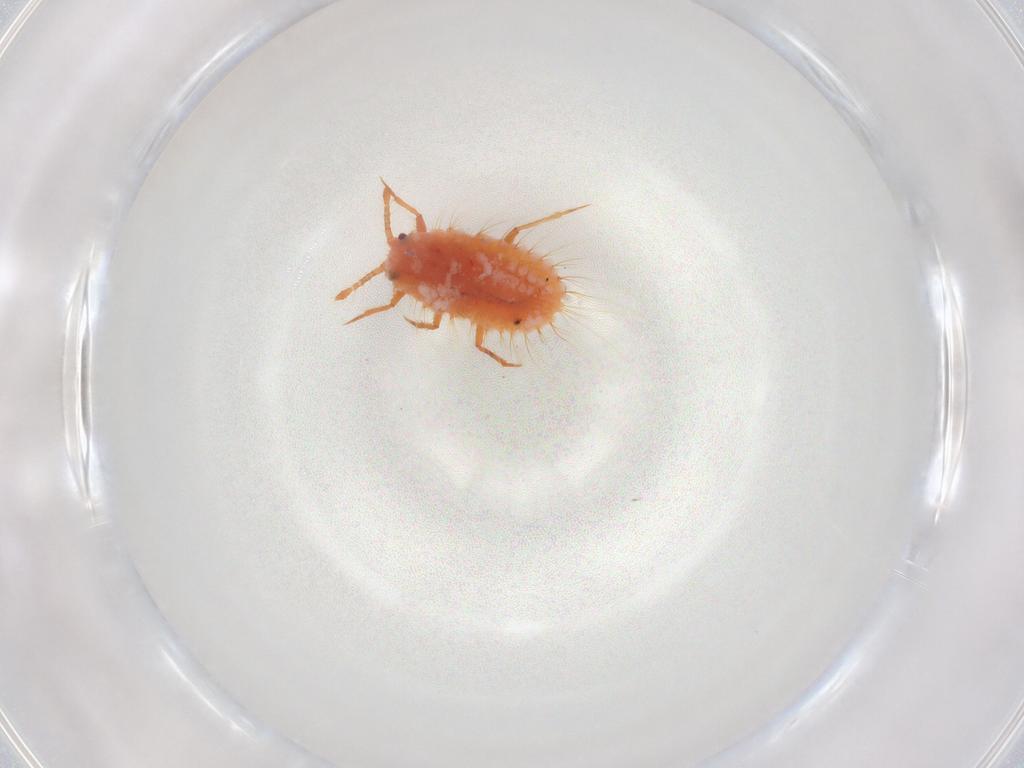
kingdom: Animalia
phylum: Arthropoda
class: Insecta
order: Hemiptera
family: Coccoidea_incertae_sedis
